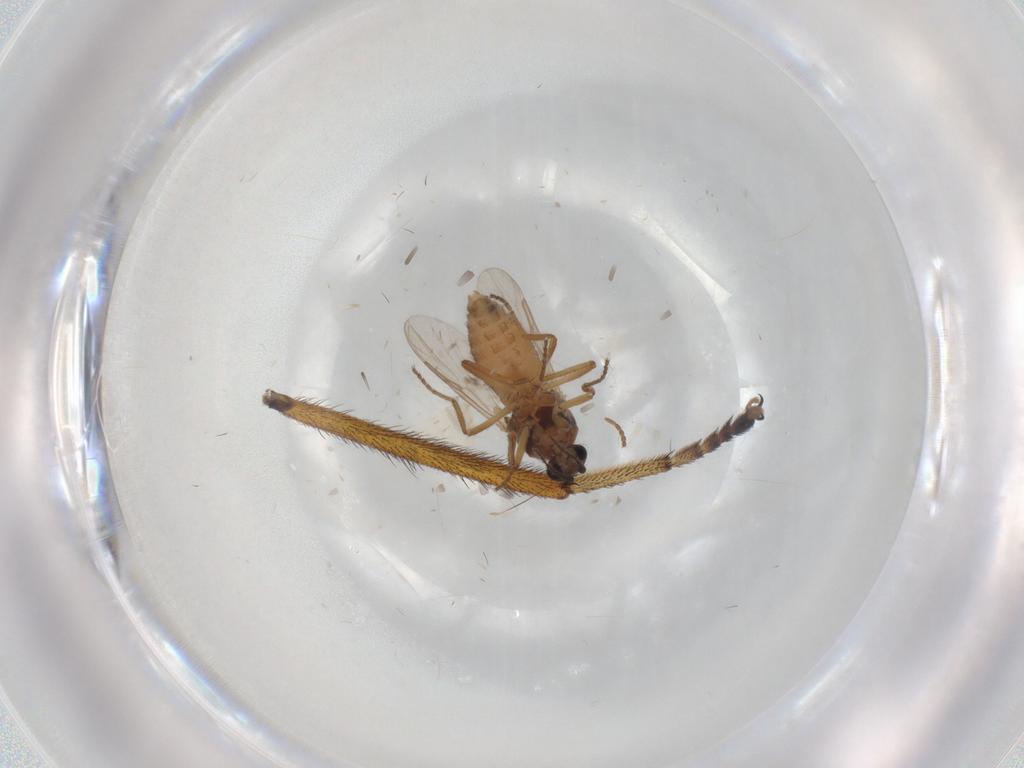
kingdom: Animalia
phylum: Arthropoda
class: Insecta
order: Diptera
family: Ceratopogonidae
